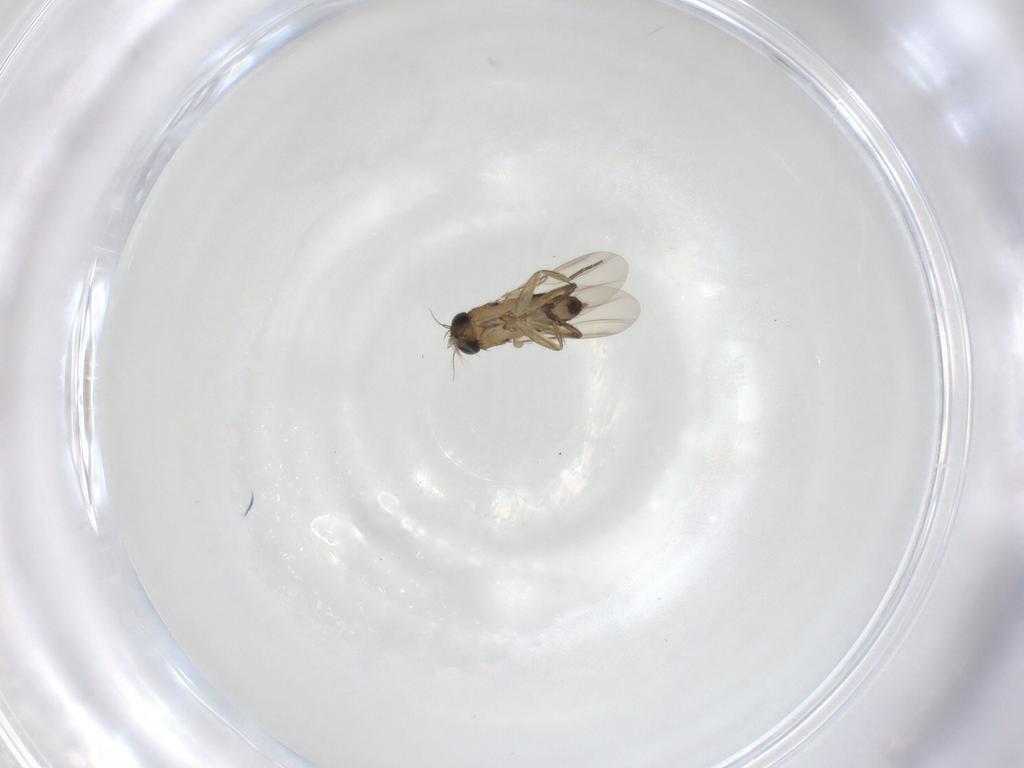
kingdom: Animalia
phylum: Arthropoda
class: Insecta
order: Diptera
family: Phoridae
